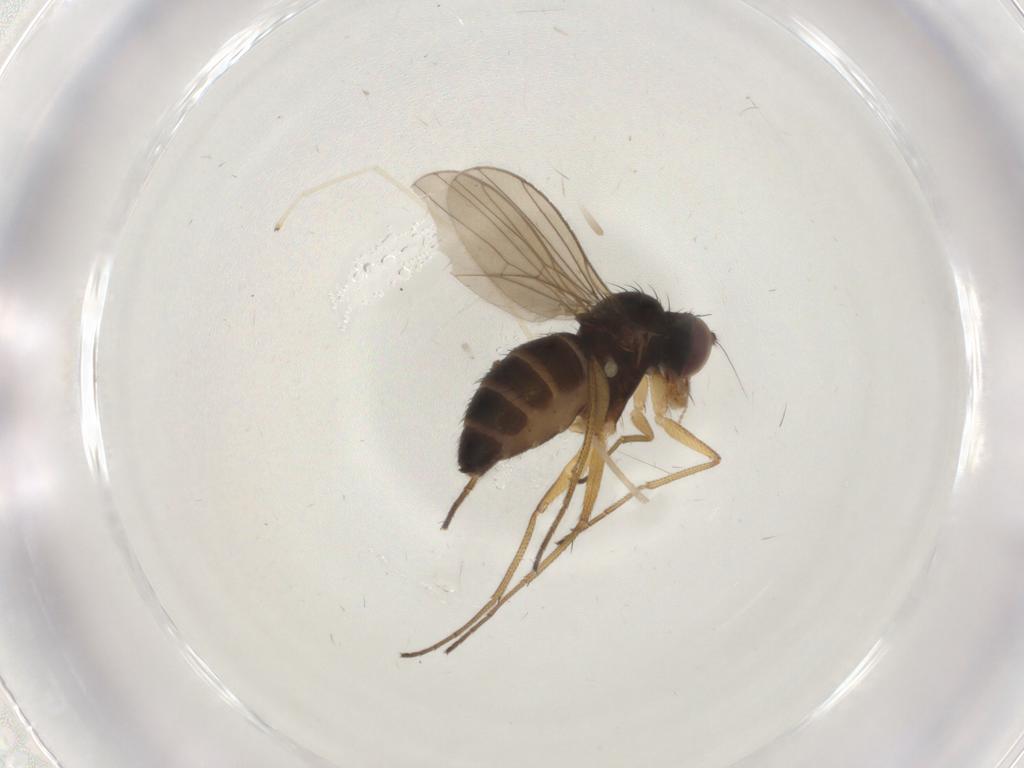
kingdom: Animalia
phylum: Arthropoda
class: Insecta
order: Diptera
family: Dolichopodidae
